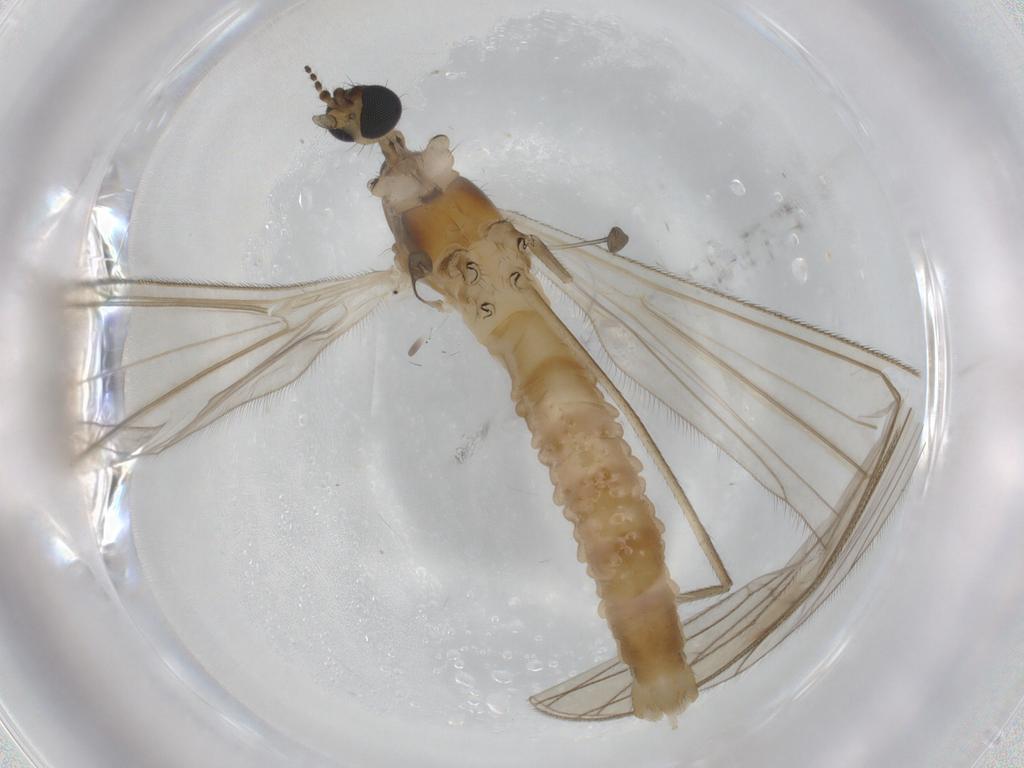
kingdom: Animalia
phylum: Arthropoda
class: Insecta
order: Diptera
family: Limoniidae
